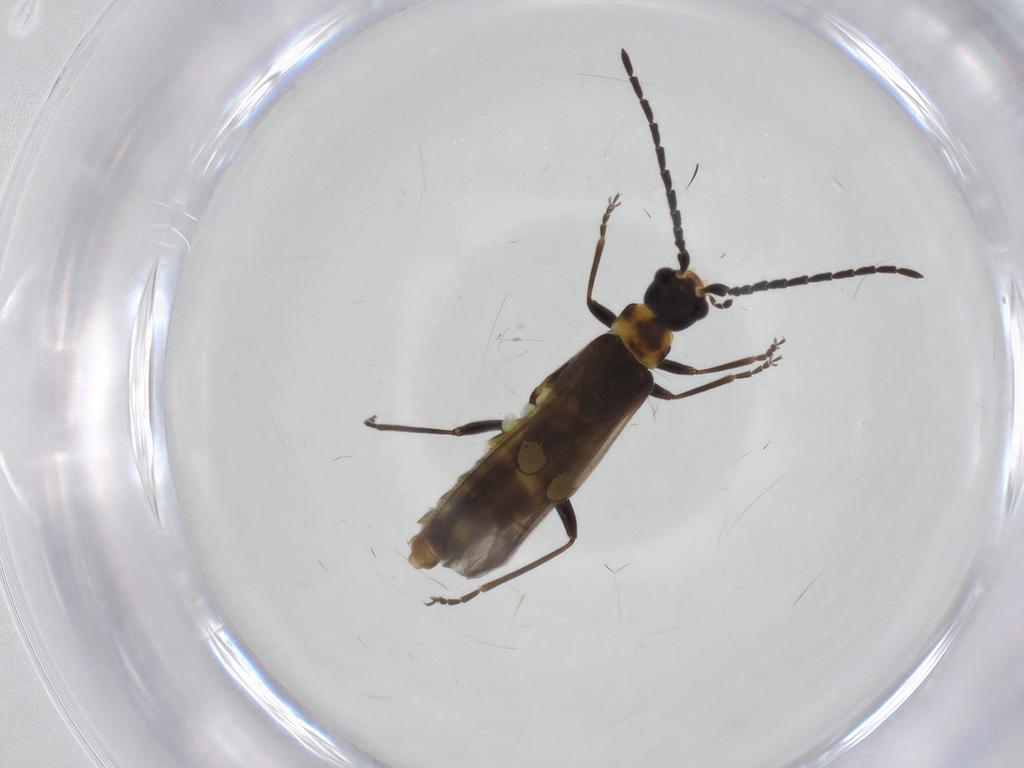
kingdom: Animalia
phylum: Arthropoda
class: Insecta
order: Coleoptera
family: Cantharidae
